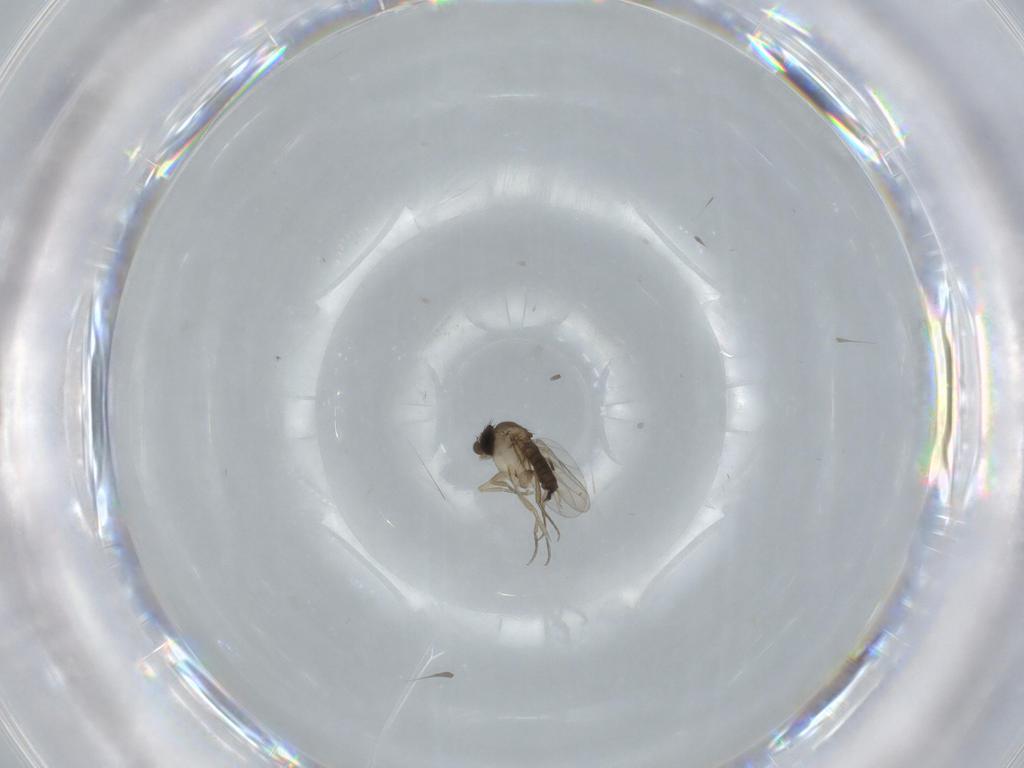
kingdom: Animalia
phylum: Arthropoda
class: Insecta
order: Diptera
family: Phoridae
